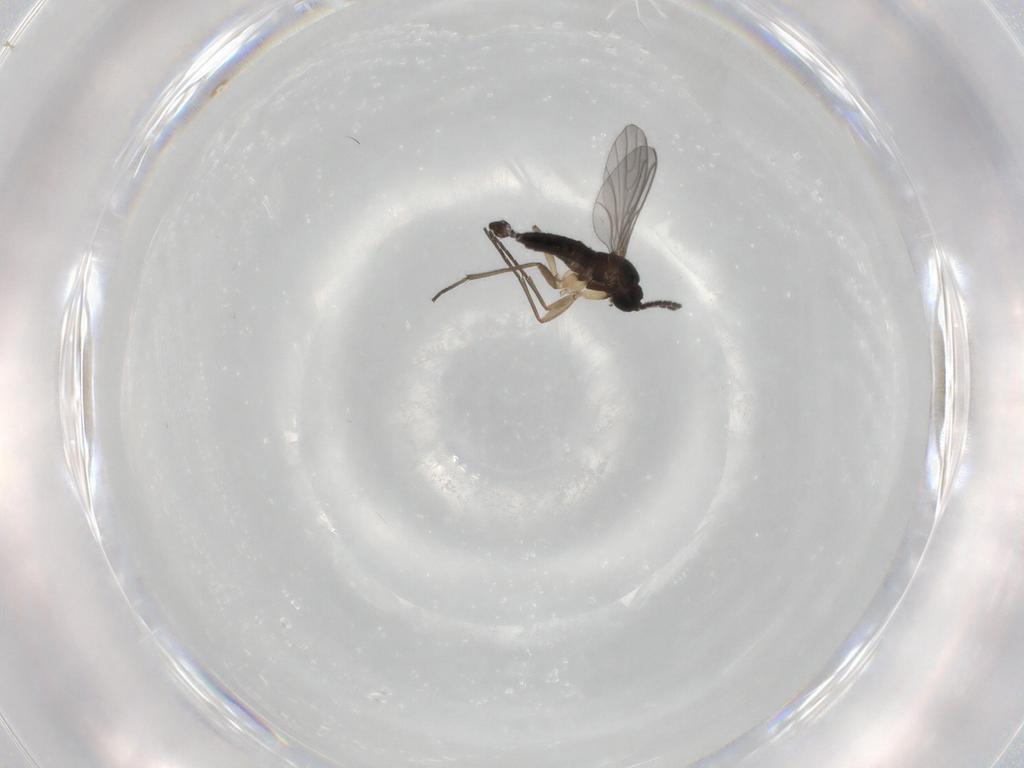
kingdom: Animalia
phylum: Arthropoda
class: Insecta
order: Diptera
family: Sciaridae
